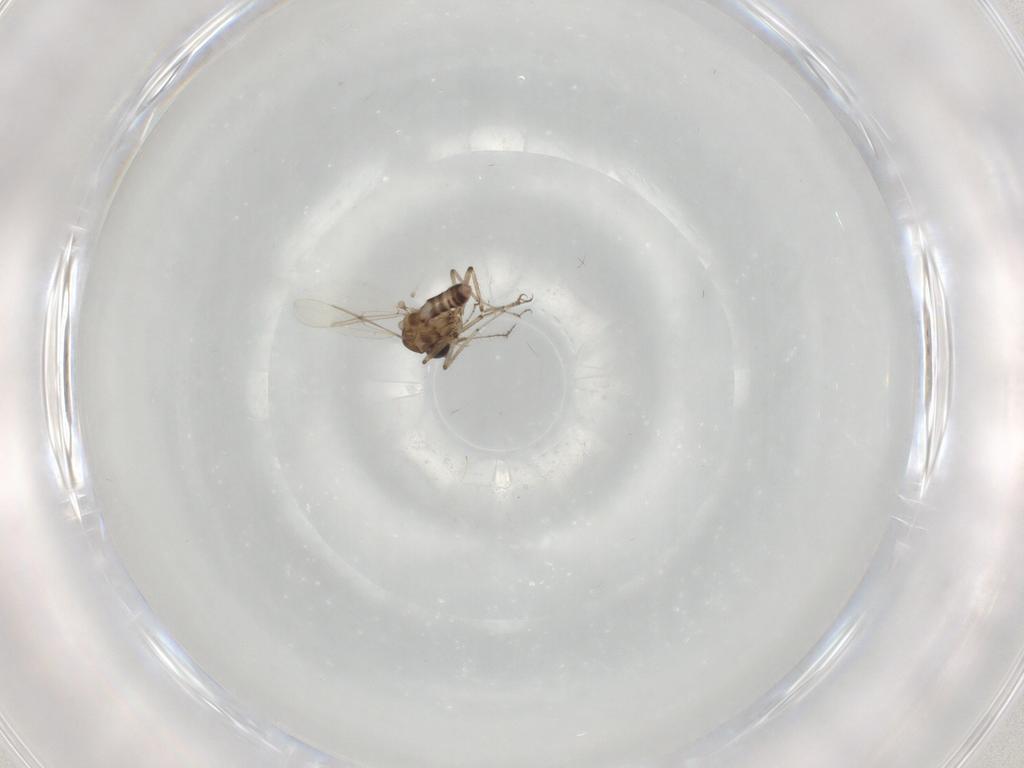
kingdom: Animalia
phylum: Arthropoda
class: Insecta
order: Diptera
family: Ceratopogonidae
